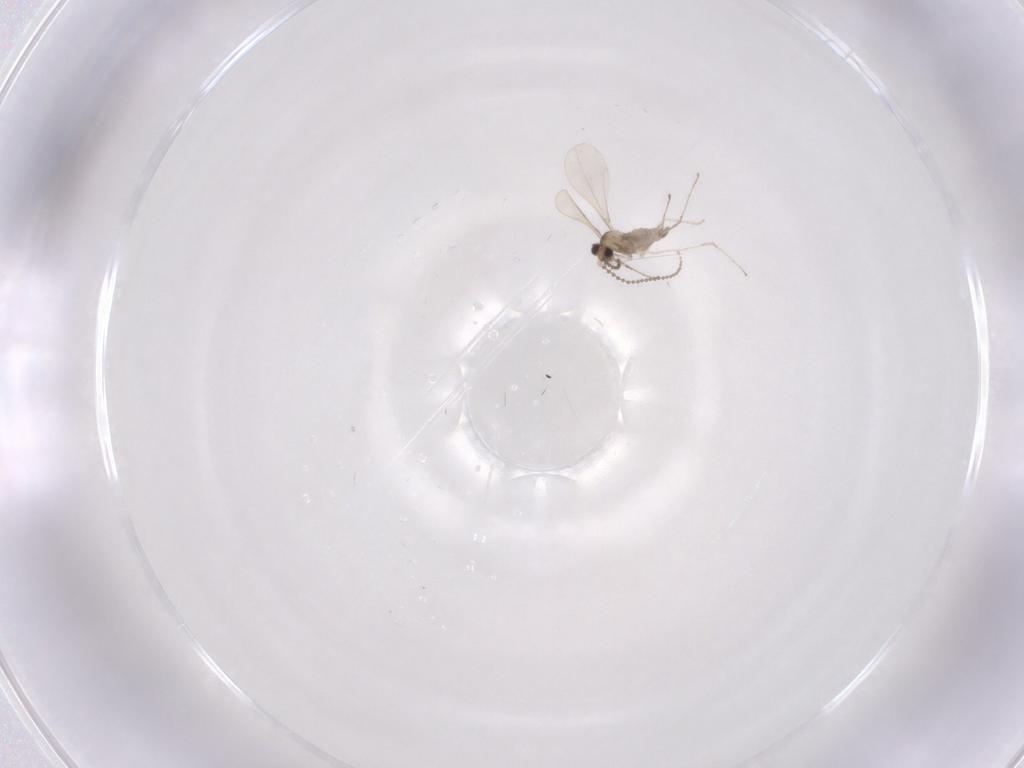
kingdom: Animalia
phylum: Arthropoda
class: Insecta
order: Diptera
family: Cecidomyiidae
